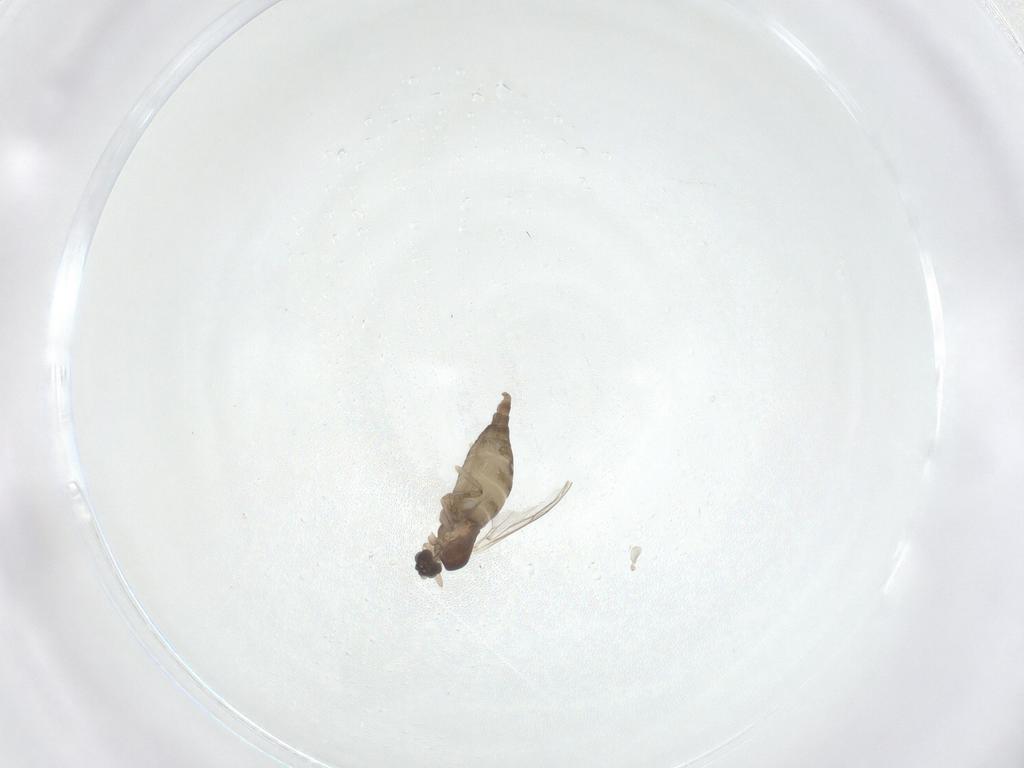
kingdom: Animalia
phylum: Arthropoda
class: Insecta
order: Diptera
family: Cecidomyiidae
